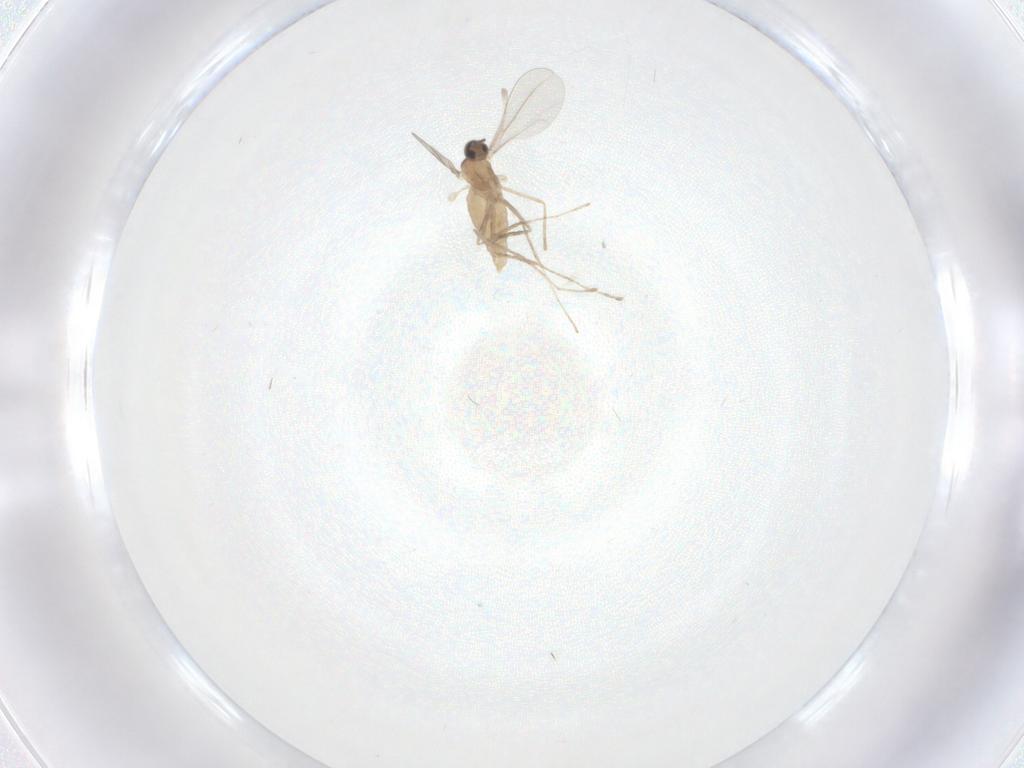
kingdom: Animalia
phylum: Arthropoda
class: Insecta
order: Diptera
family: Cecidomyiidae
